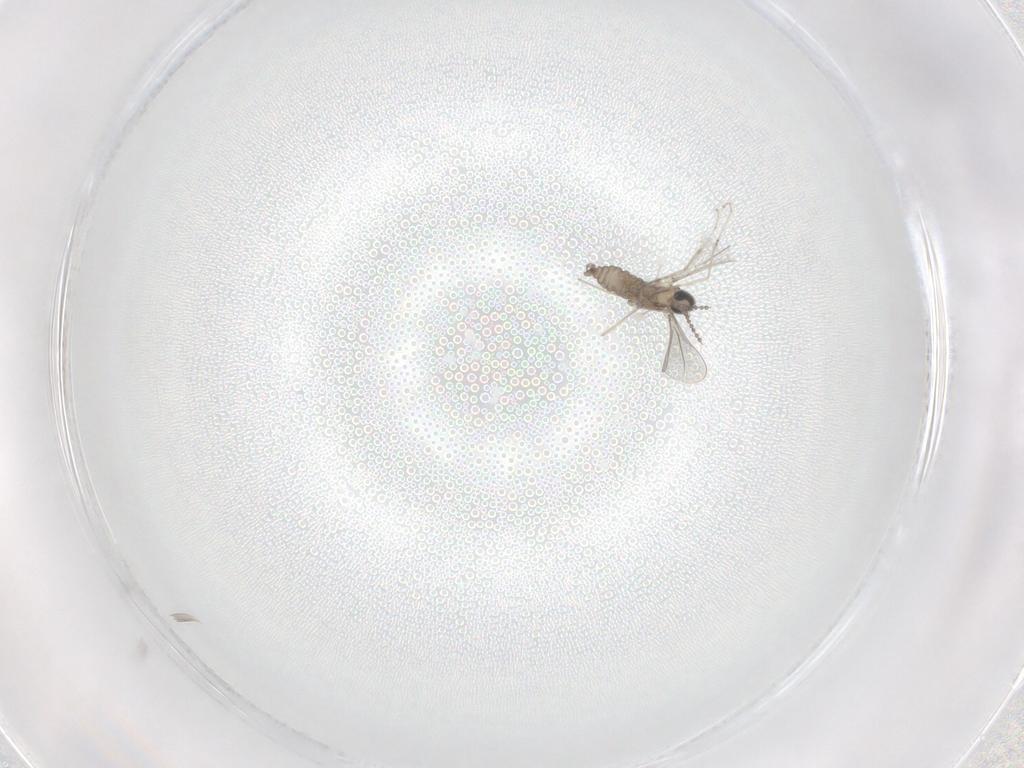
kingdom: Animalia
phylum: Arthropoda
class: Insecta
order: Diptera
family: Cecidomyiidae
